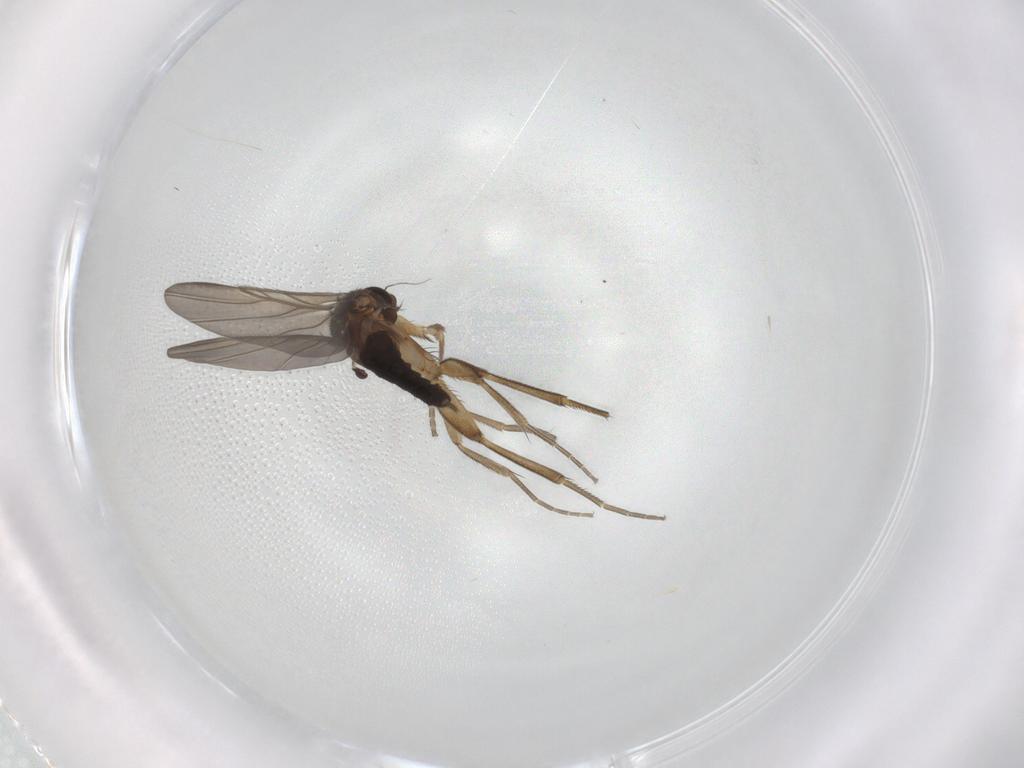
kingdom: Animalia
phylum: Arthropoda
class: Insecta
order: Diptera
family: Phoridae
